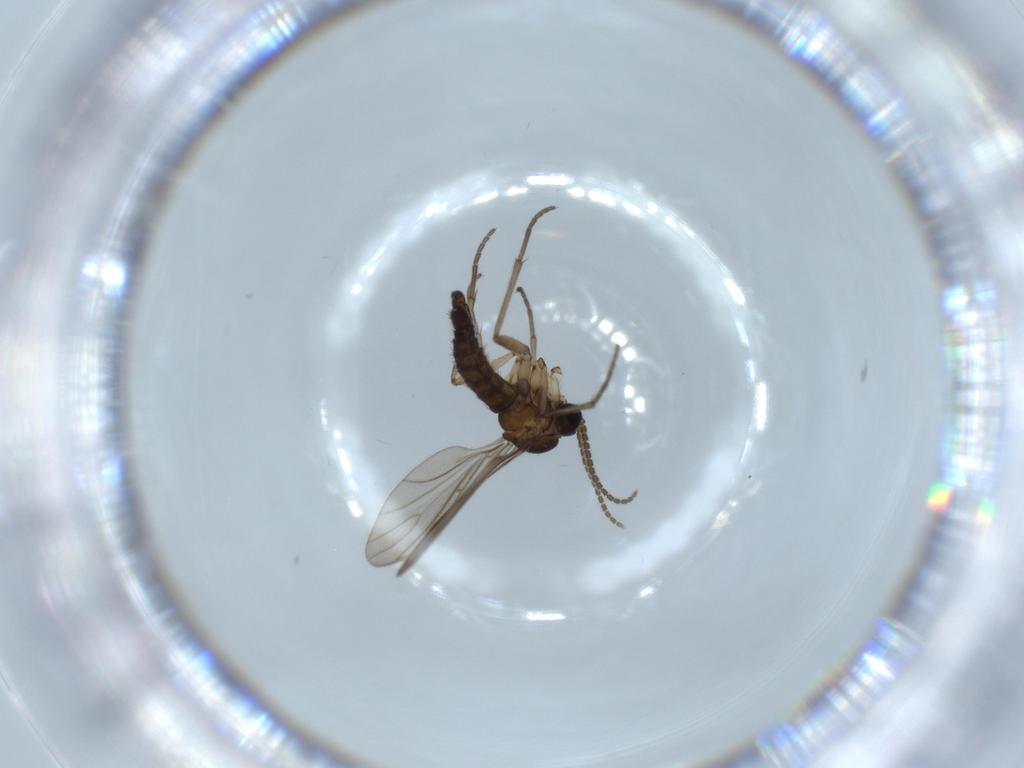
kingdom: Animalia
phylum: Arthropoda
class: Insecta
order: Diptera
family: Sciaridae
